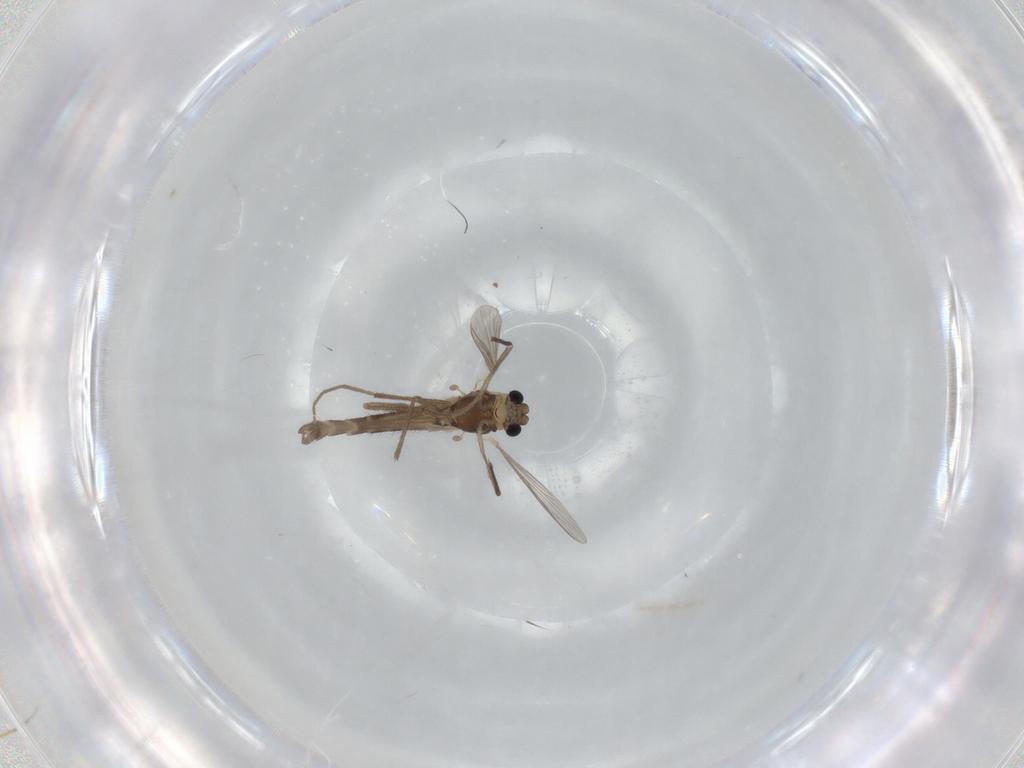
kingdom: Animalia
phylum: Arthropoda
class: Insecta
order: Diptera
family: Chironomidae
